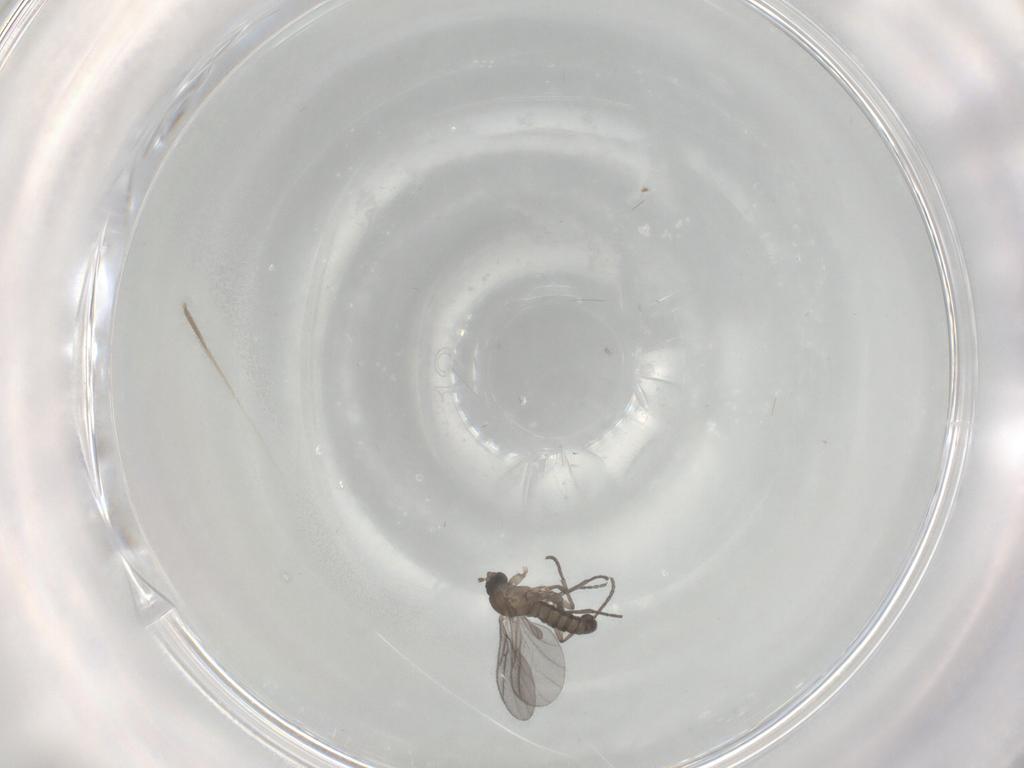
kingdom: Animalia
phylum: Arthropoda
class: Insecta
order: Diptera
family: Sciaridae
